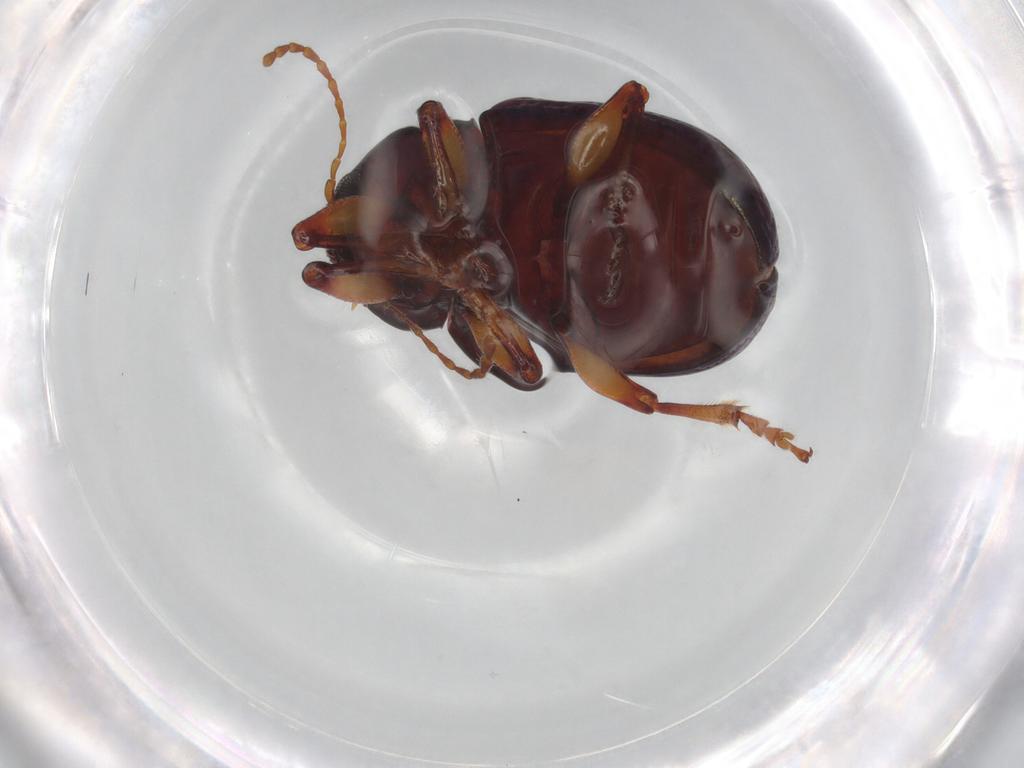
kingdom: Animalia
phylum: Arthropoda
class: Insecta
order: Coleoptera
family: Chrysomelidae
